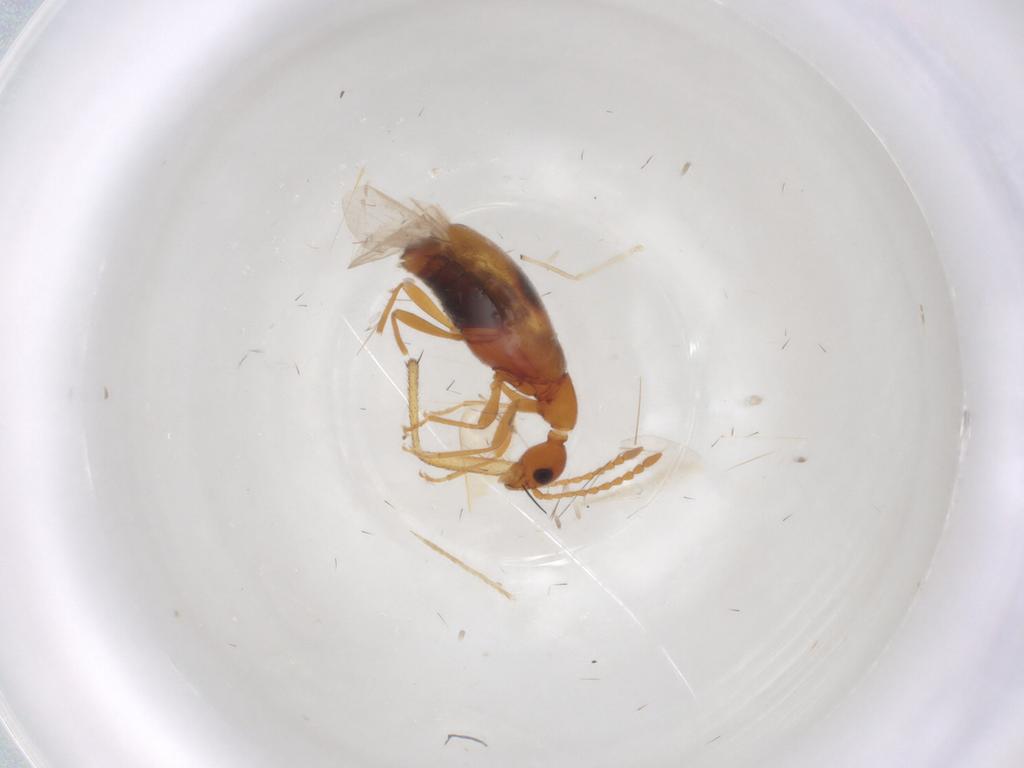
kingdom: Animalia
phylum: Arthropoda
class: Insecta
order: Coleoptera
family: Anthicidae
